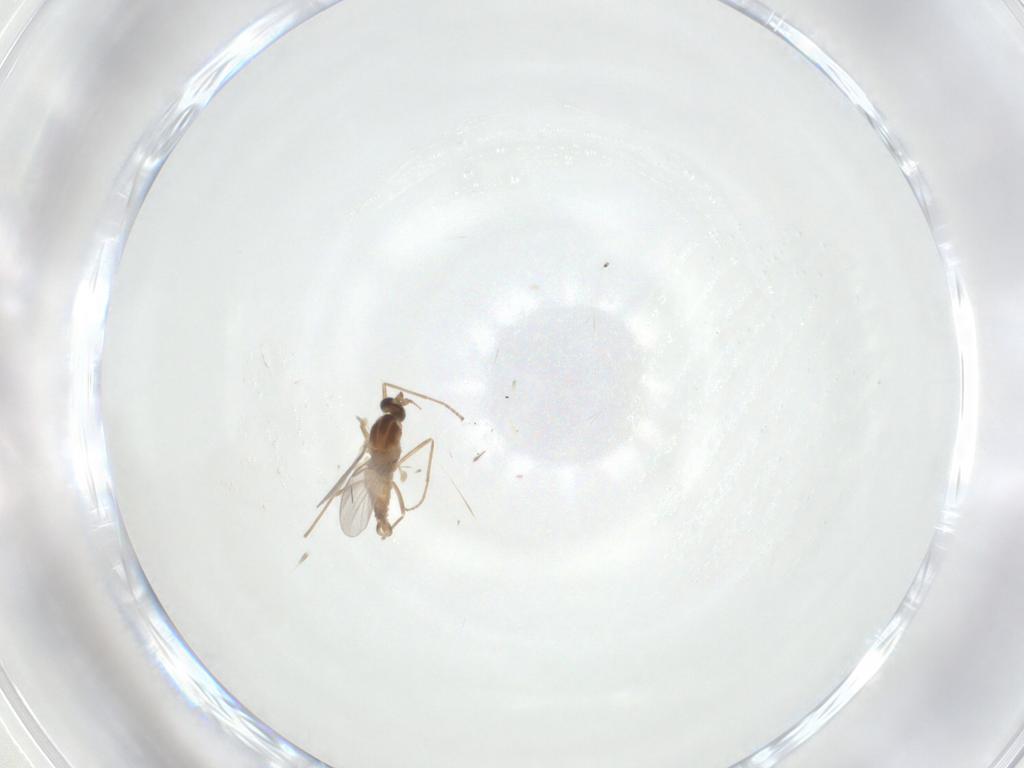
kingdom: Animalia
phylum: Arthropoda
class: Insecta
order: Diptera
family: Cecidomyiidae
